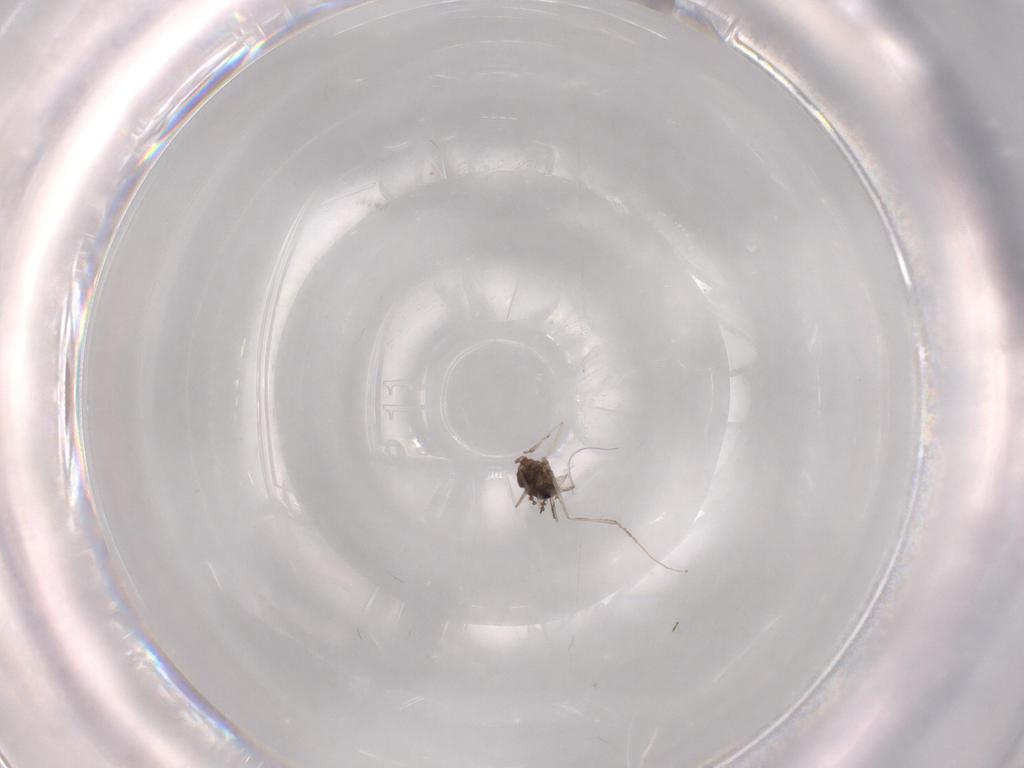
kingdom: Animalia
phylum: Arthropoda
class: Insecta
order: Diptera
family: Cecidomyiidae
